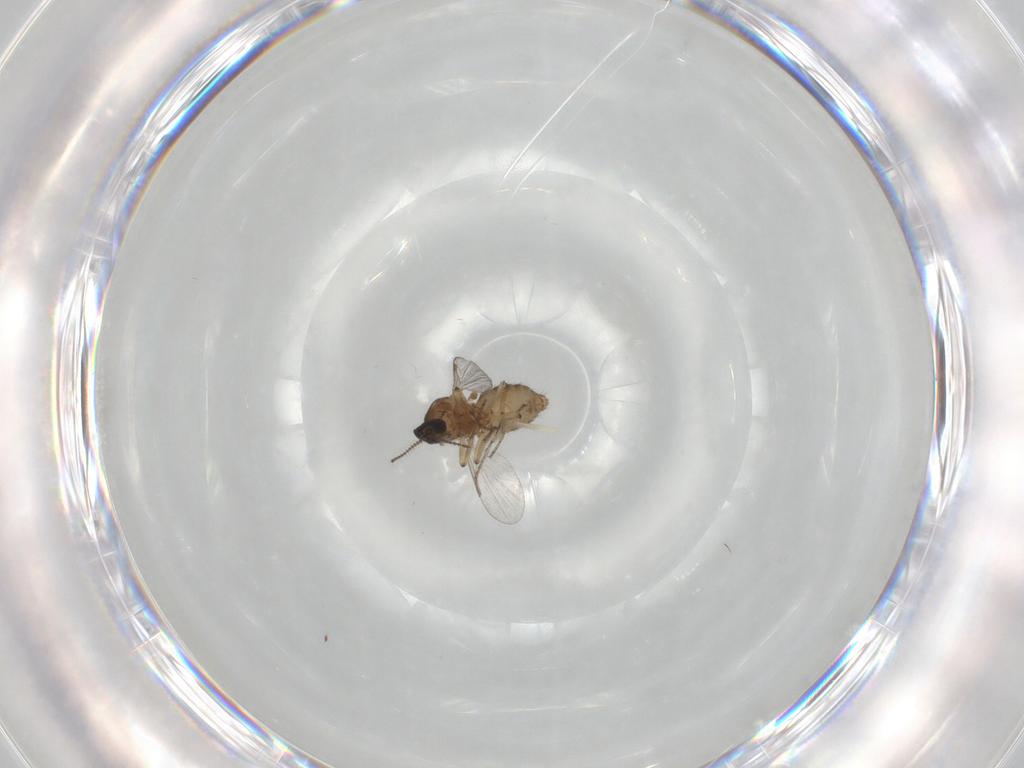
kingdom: Animalia
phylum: Arthropoda
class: Insecta
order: Diptera
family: Ceratopogonidae
